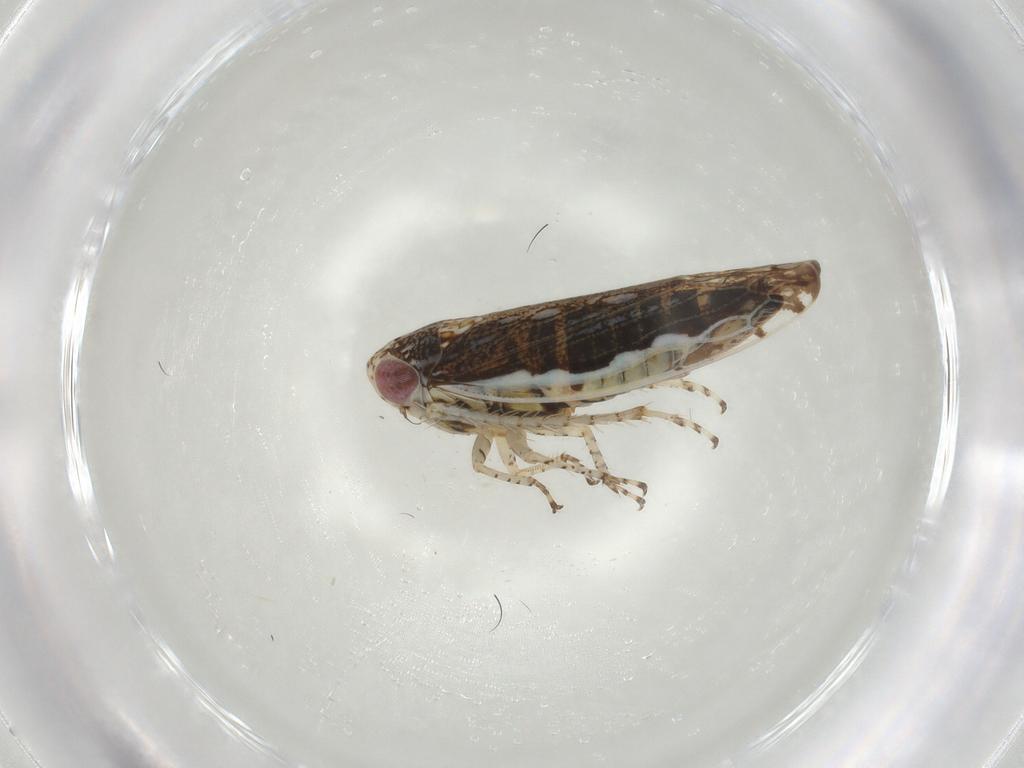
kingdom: Animalia
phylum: Arthropoda
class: Insecta
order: Hemiptera
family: Cicadellidae
